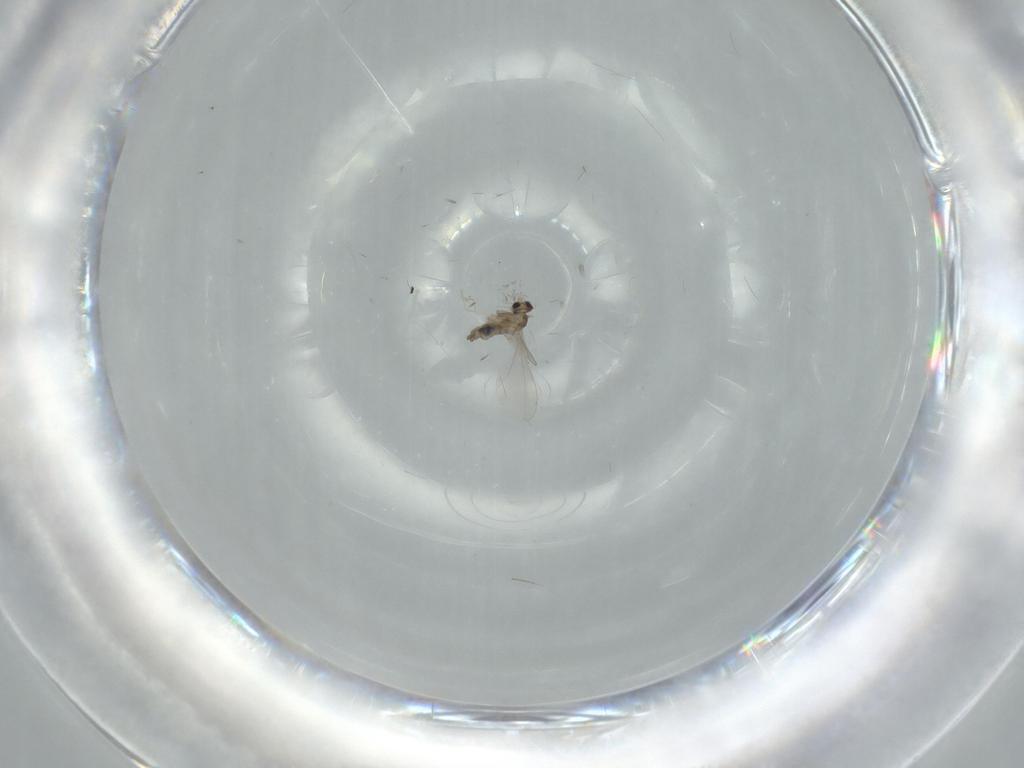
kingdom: Animalia
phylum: Arthropoda
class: Insecta
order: Diptera
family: Cecidomyiidae
